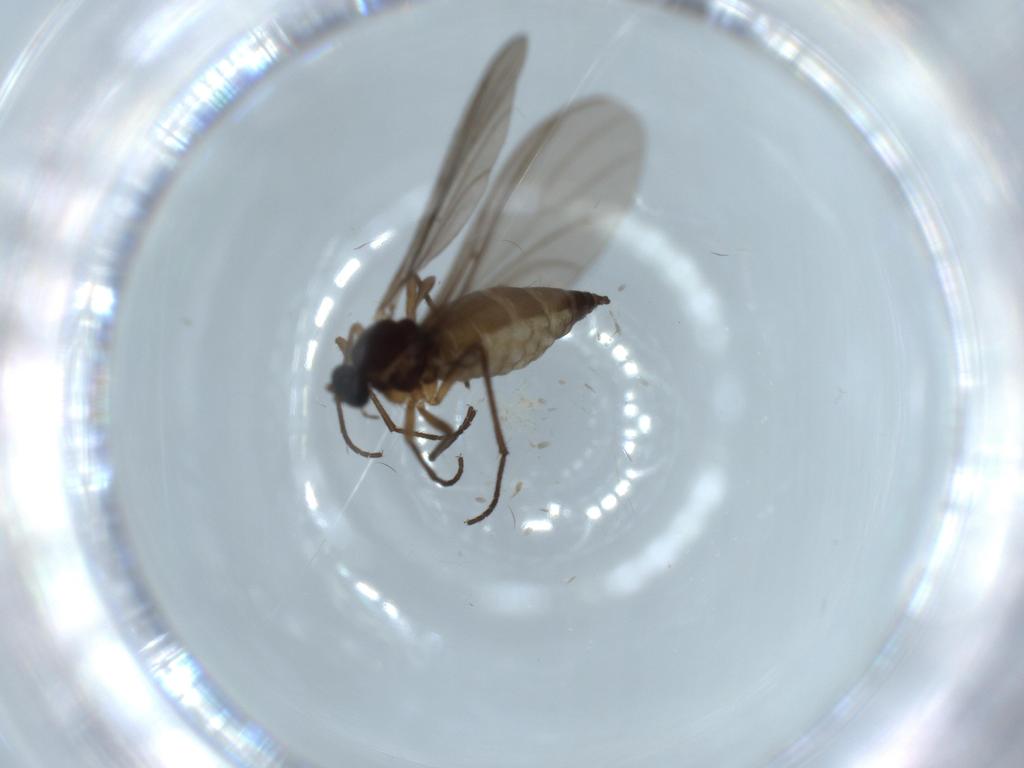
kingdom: Animalia
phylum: Arthropoda
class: Insecta
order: Diptera
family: Sciaridae
